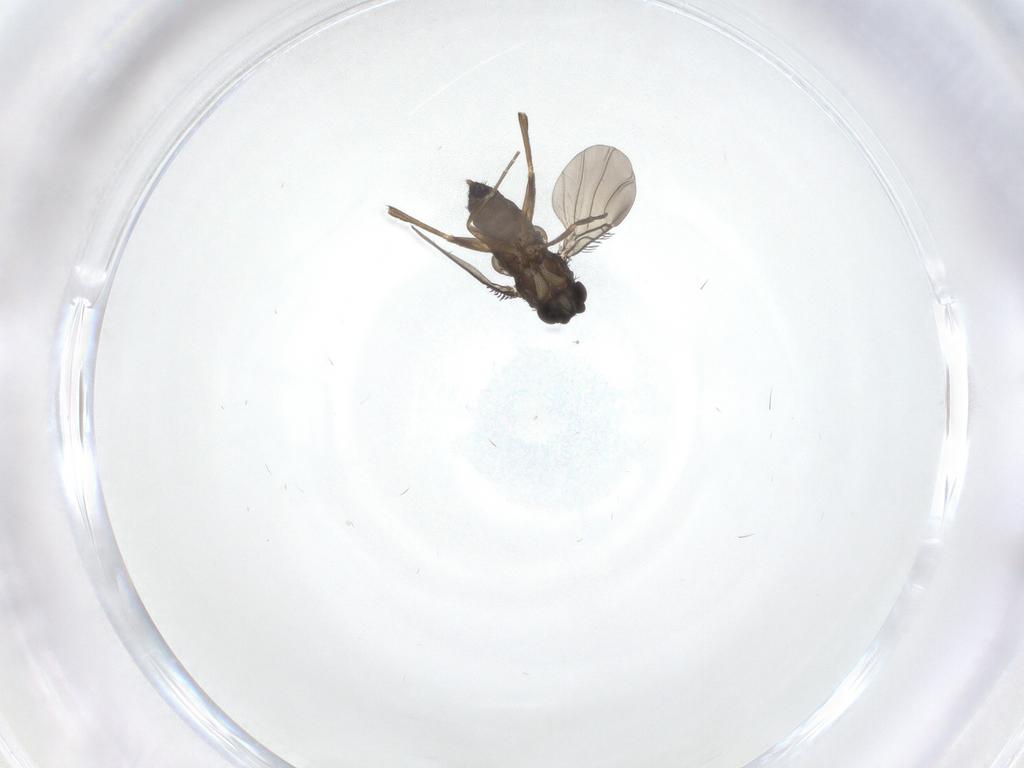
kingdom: Animalia
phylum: Arthropoda
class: Insecta
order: Diptera
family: Phoridae
